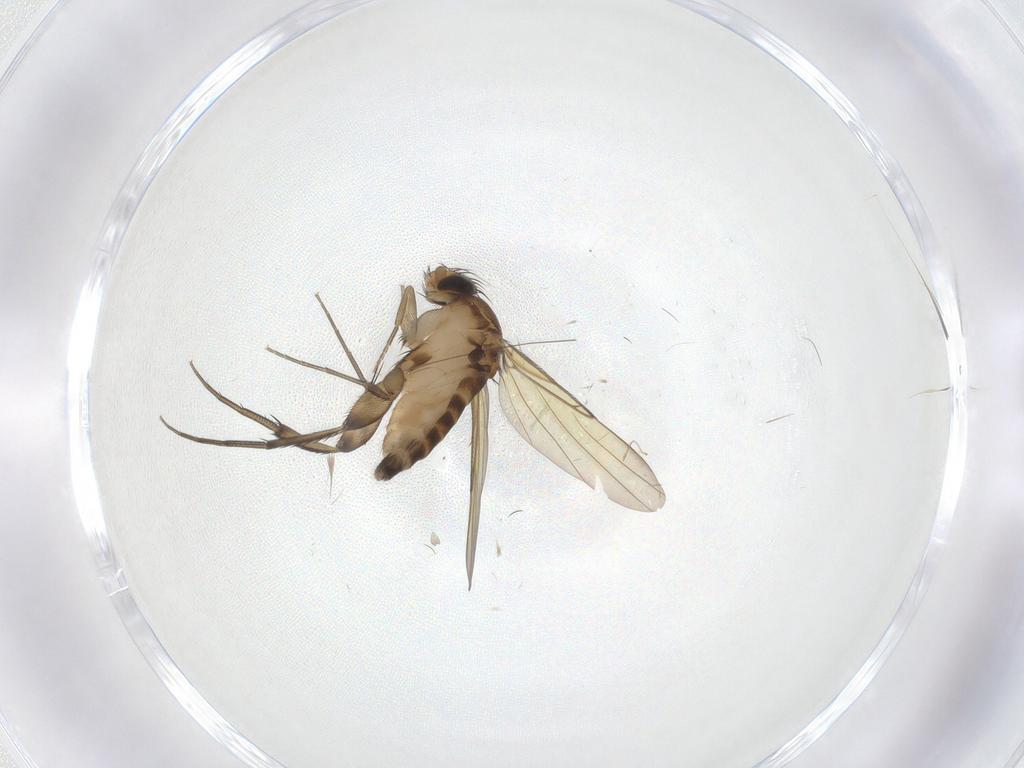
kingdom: Animalia
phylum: Arthropoda
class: Insecta
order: Diptera
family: Phoridae
